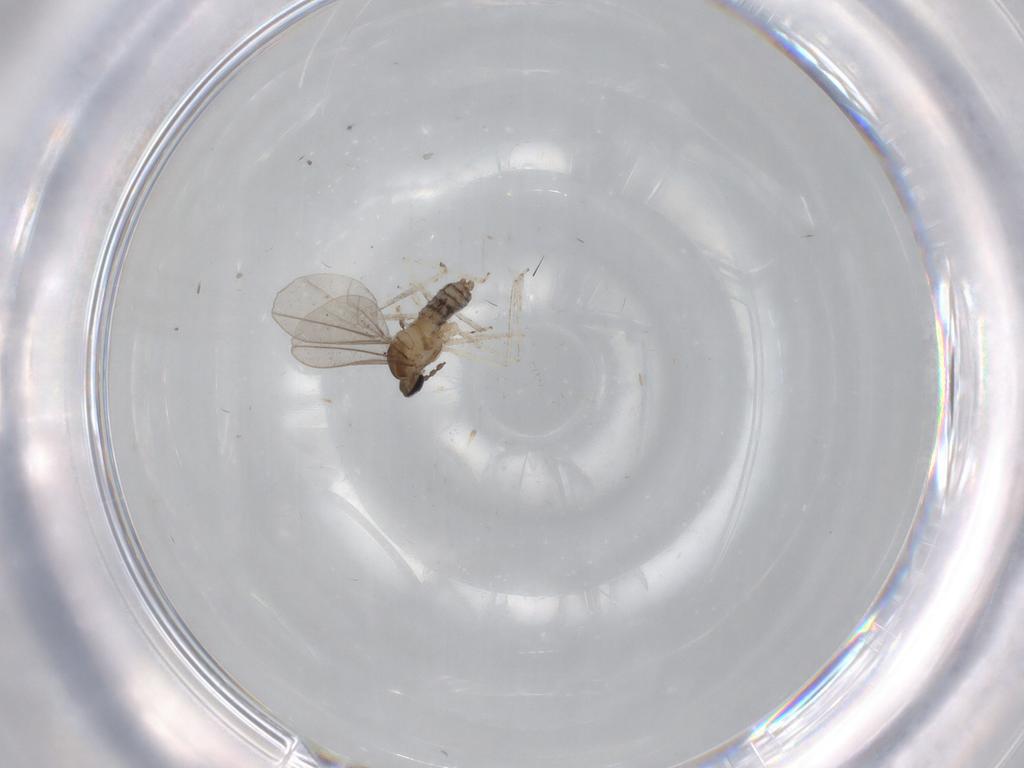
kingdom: Animalia
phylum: Arthropoda
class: Insecta
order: Diptera
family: Cecidomyiidae
